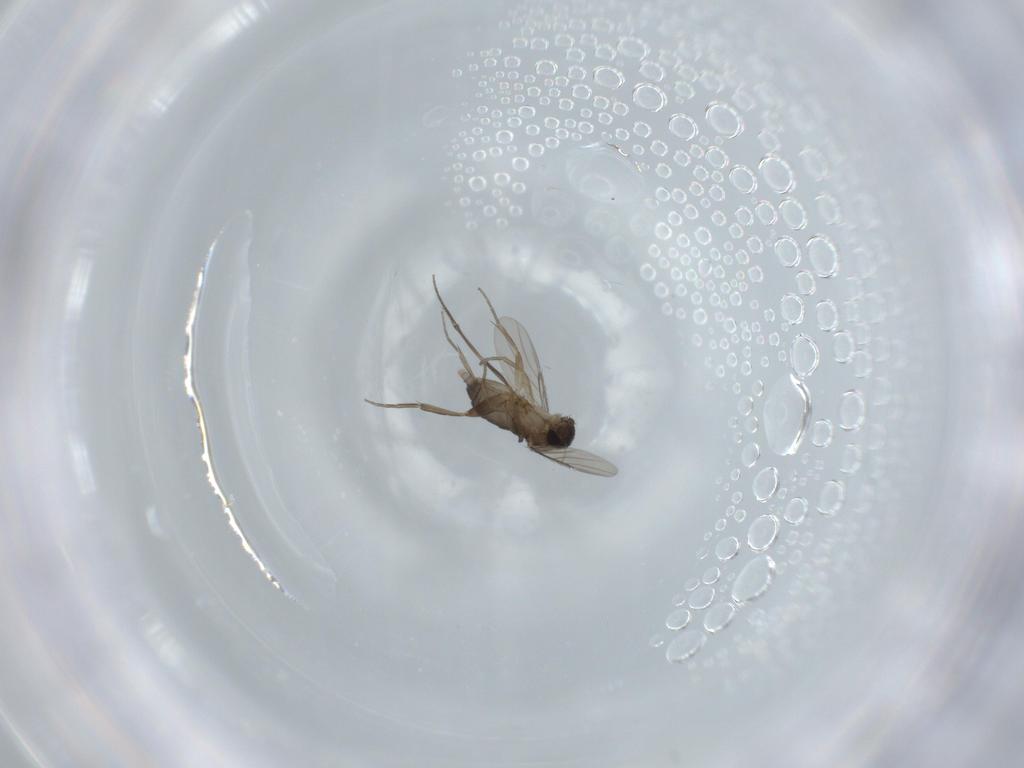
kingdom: Animalia
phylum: Arthropoda
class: Insecta
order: Diptera
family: Phoridae
